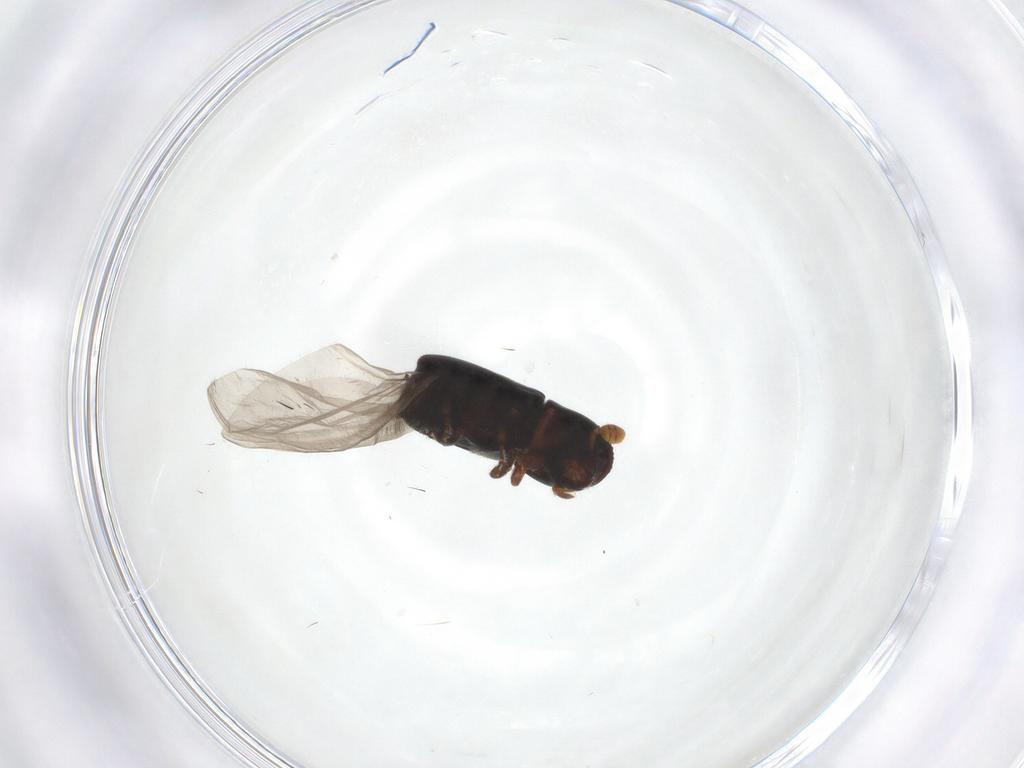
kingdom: Animalia
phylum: Arthropoda
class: Insecta
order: Coleoptera
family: Curculionidae
